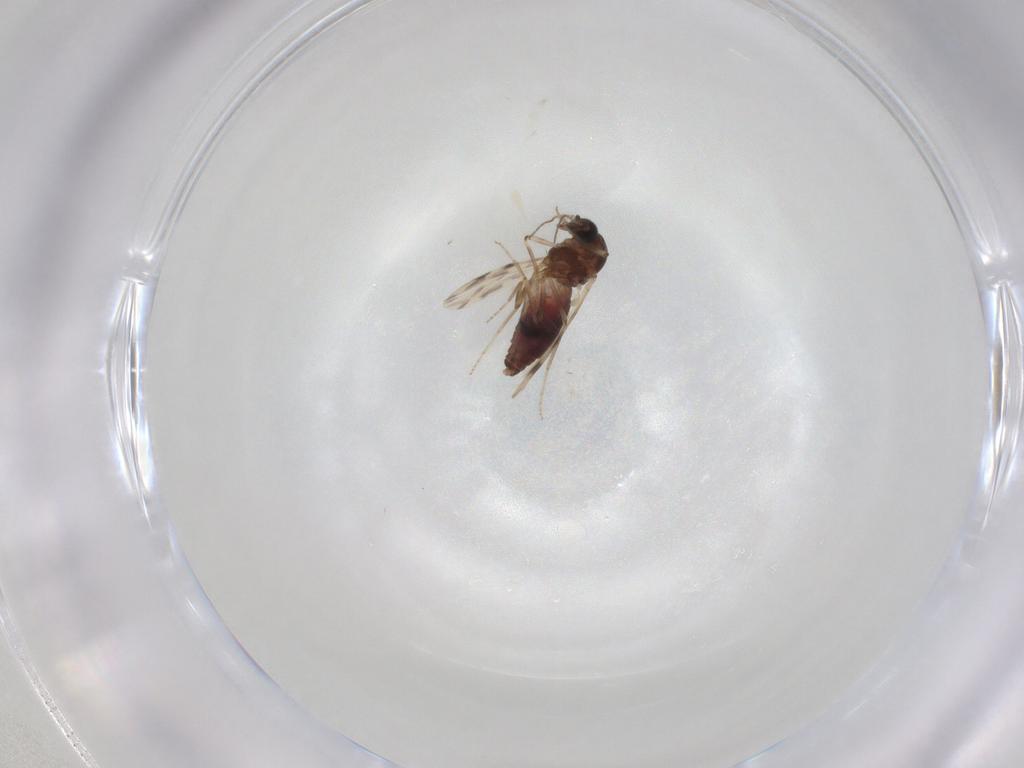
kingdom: Animalia
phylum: Arthropoda
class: Insecta
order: Diptera
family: Ceratopogonidae
